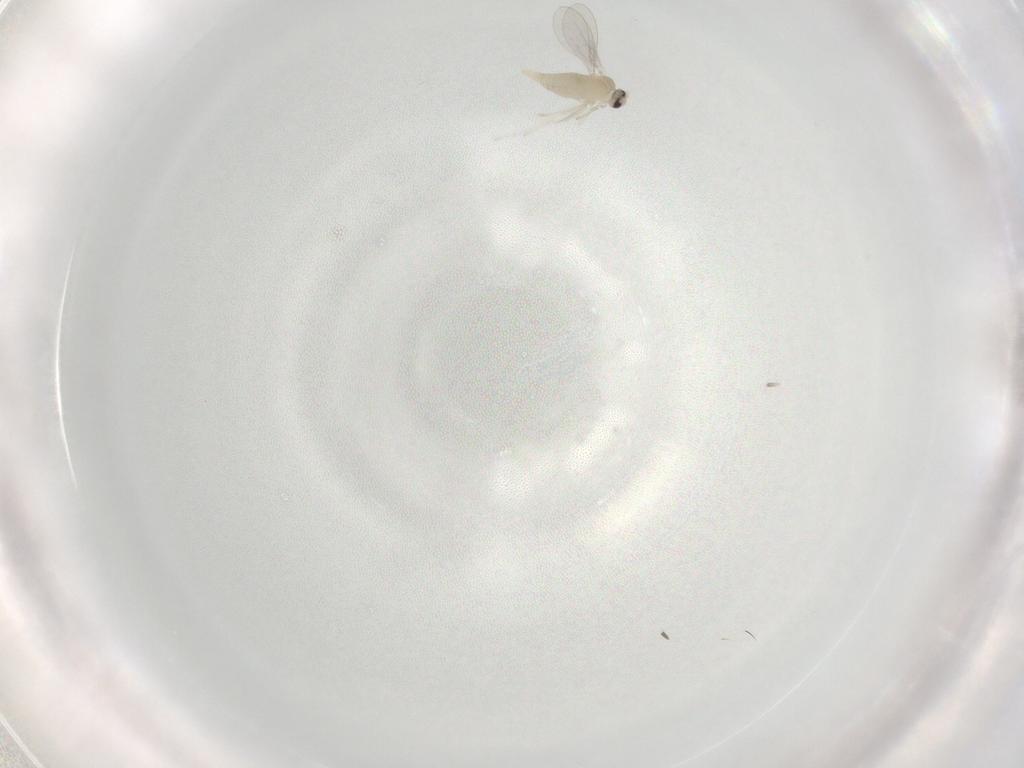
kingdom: Animalia
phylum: Arthropoda
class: Insecta
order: Diptera
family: Cecidomyiidae
